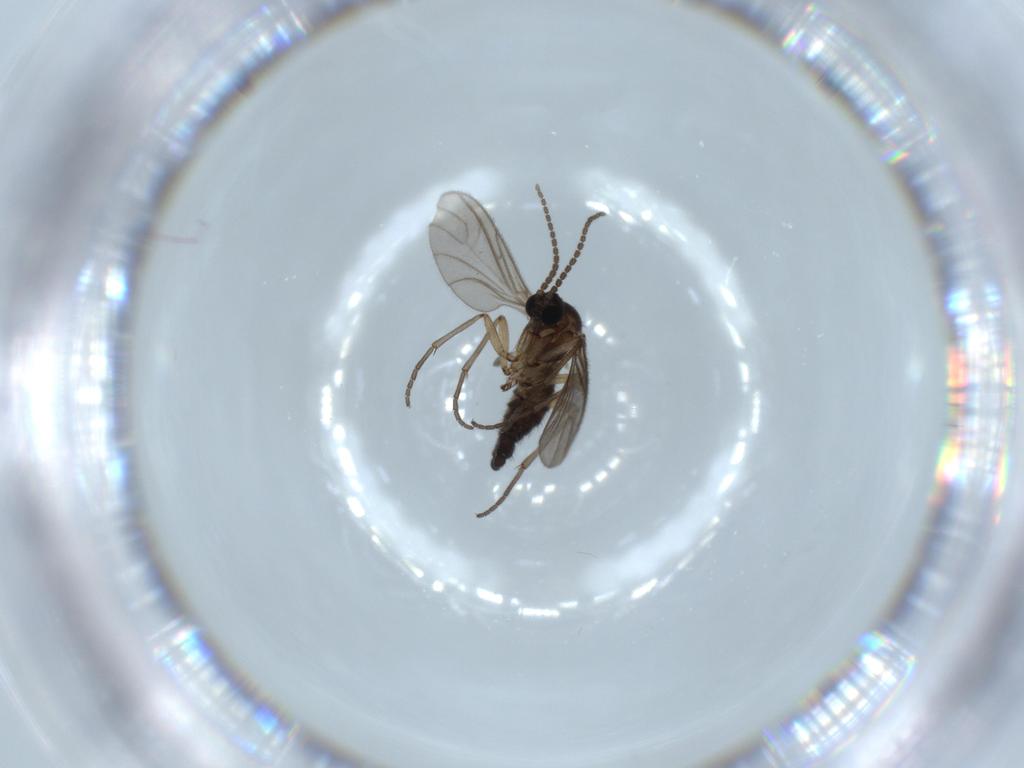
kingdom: Animalia
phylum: Arthropoda
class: Insecta
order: Diptera
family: Sciaridae
